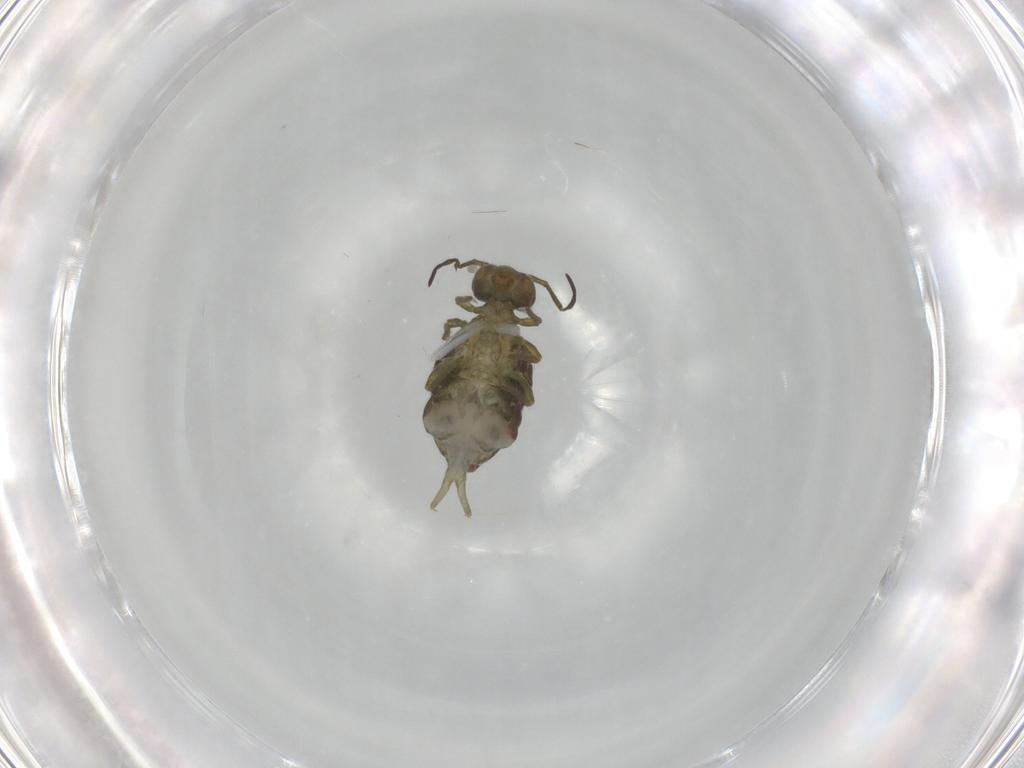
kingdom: Animalia
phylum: Arthropoda
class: Collembola
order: Symphypleona
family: Sminthuridae
